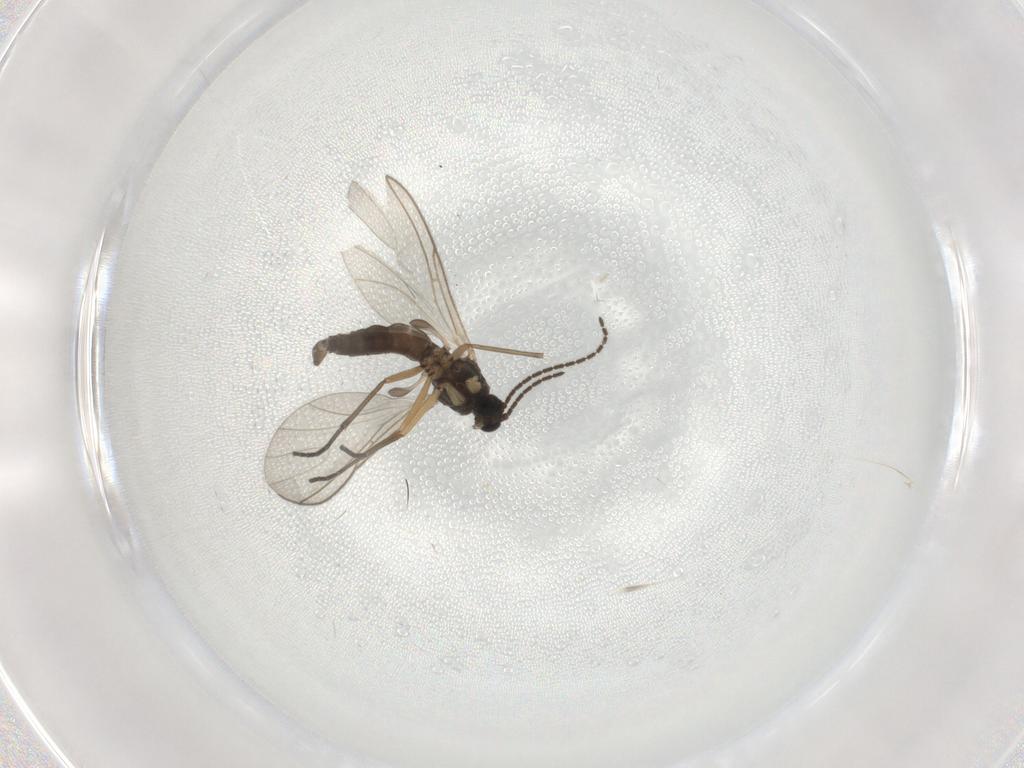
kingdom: Animalia
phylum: Arthropoda
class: Insecta
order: Diptera
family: Sciaridae
